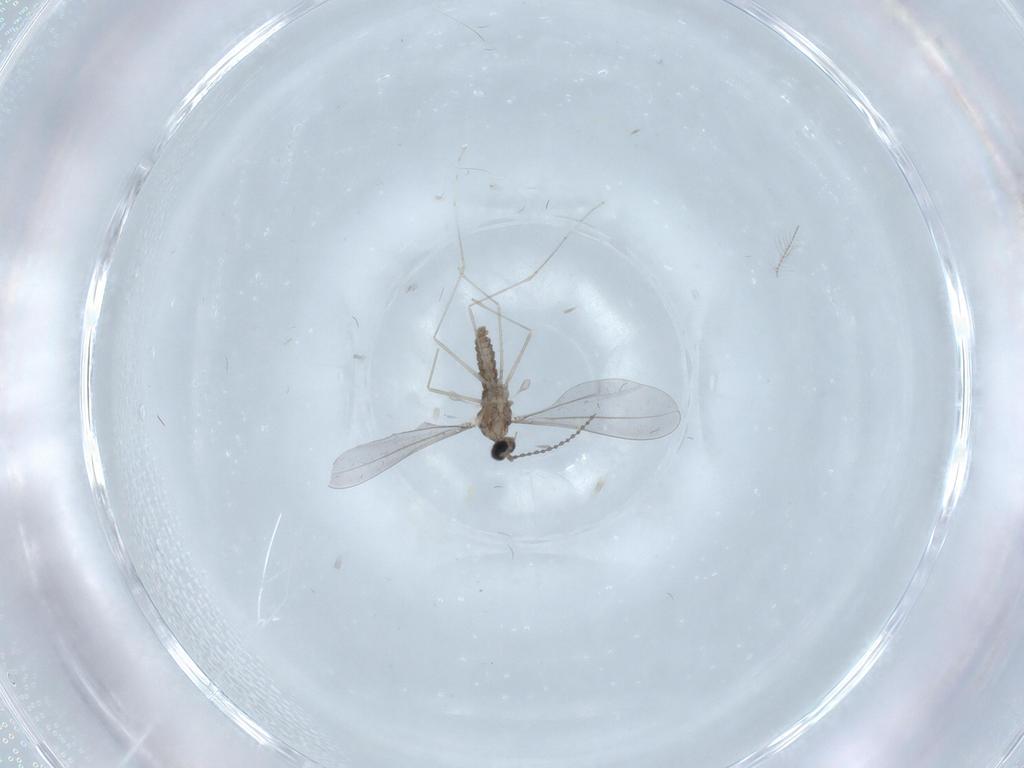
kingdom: Animalia
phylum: Arthropoda
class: Insecta
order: Diptera
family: Cecidomyiidae
